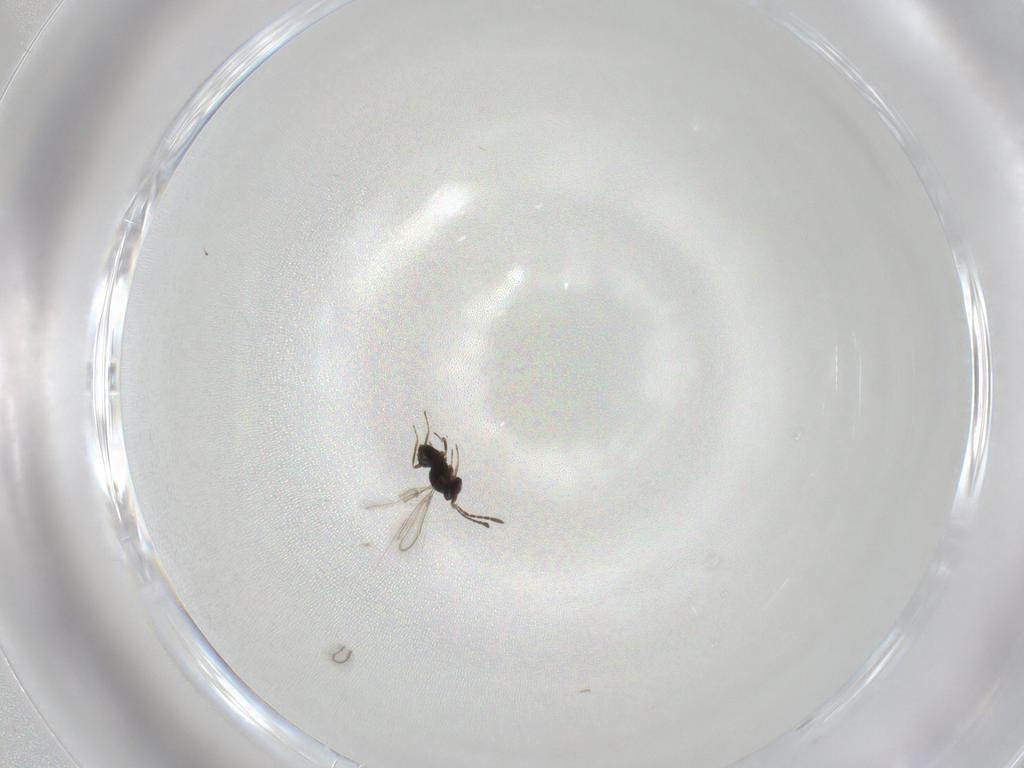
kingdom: Animalia
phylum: Arthropoda
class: Insecta
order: Hymenoptera
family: Mymaridae
